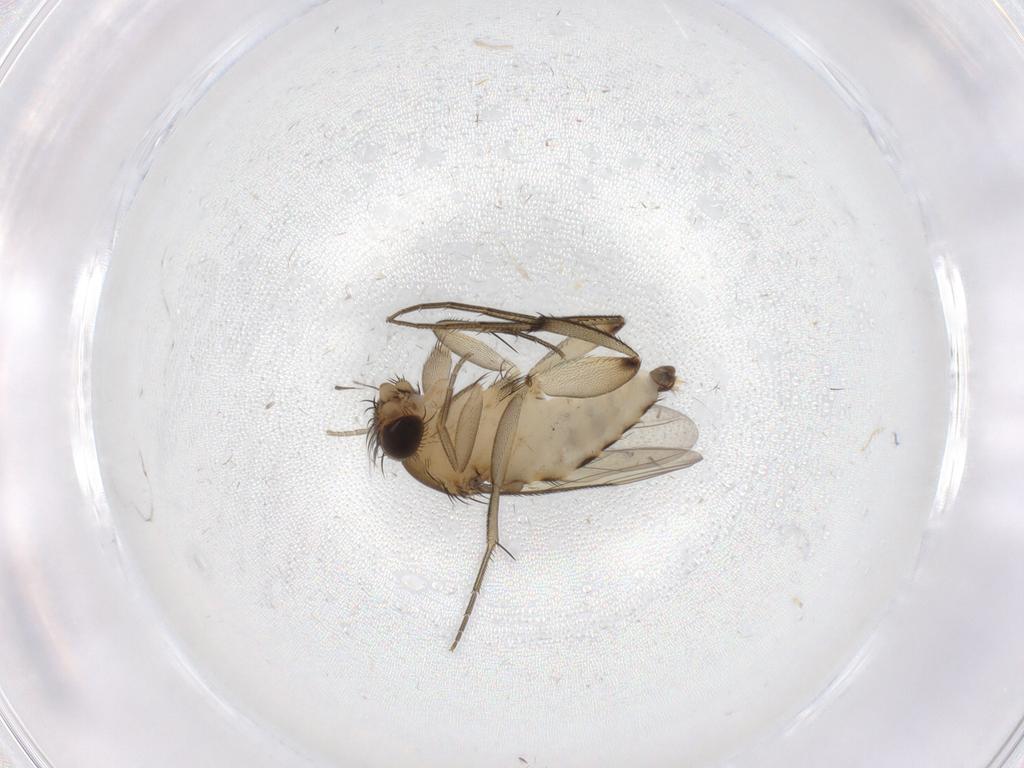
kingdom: Animalia
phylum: Arthropoda
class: Insecta
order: Diptera
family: Phoridae
